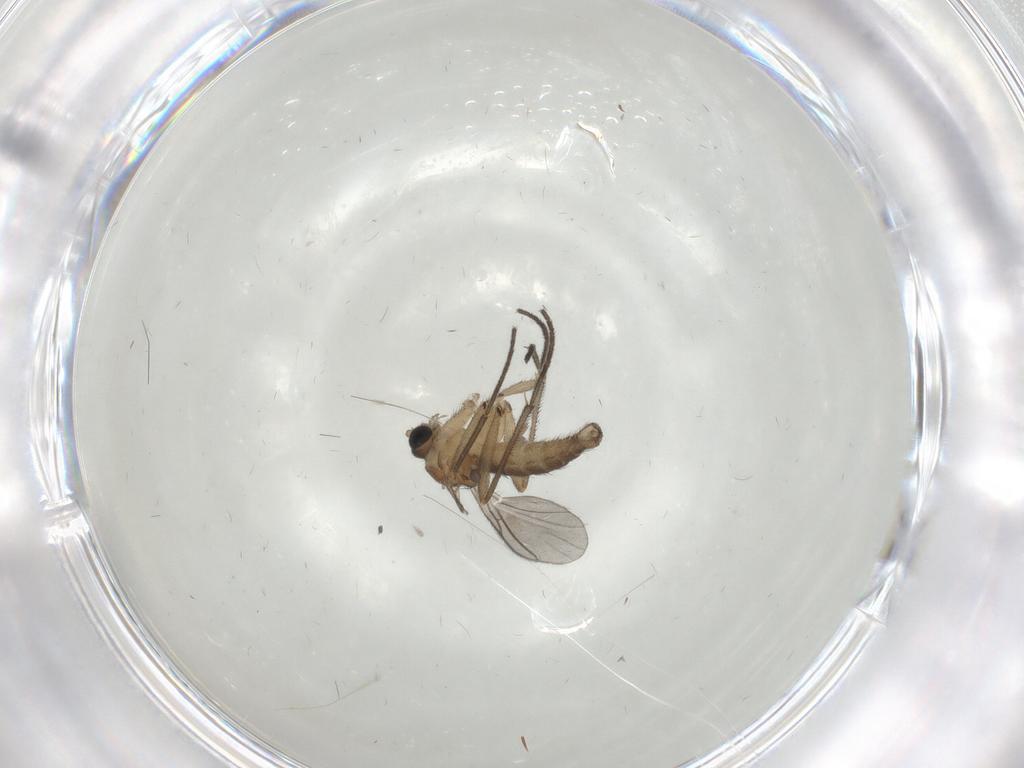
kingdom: Animalia
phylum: Arthropoda
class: Insecta
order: Diptera
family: Sciaridae
